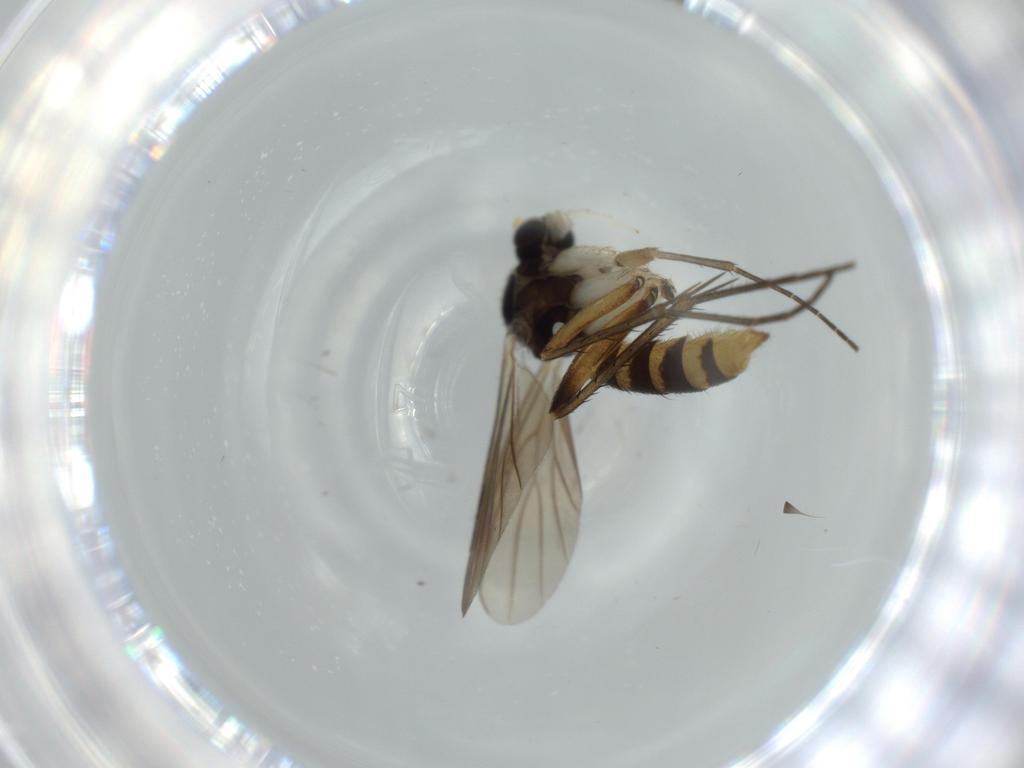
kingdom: Animalia
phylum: Arthropoda
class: Insecta
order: Diptera
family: Mycetophilidae
